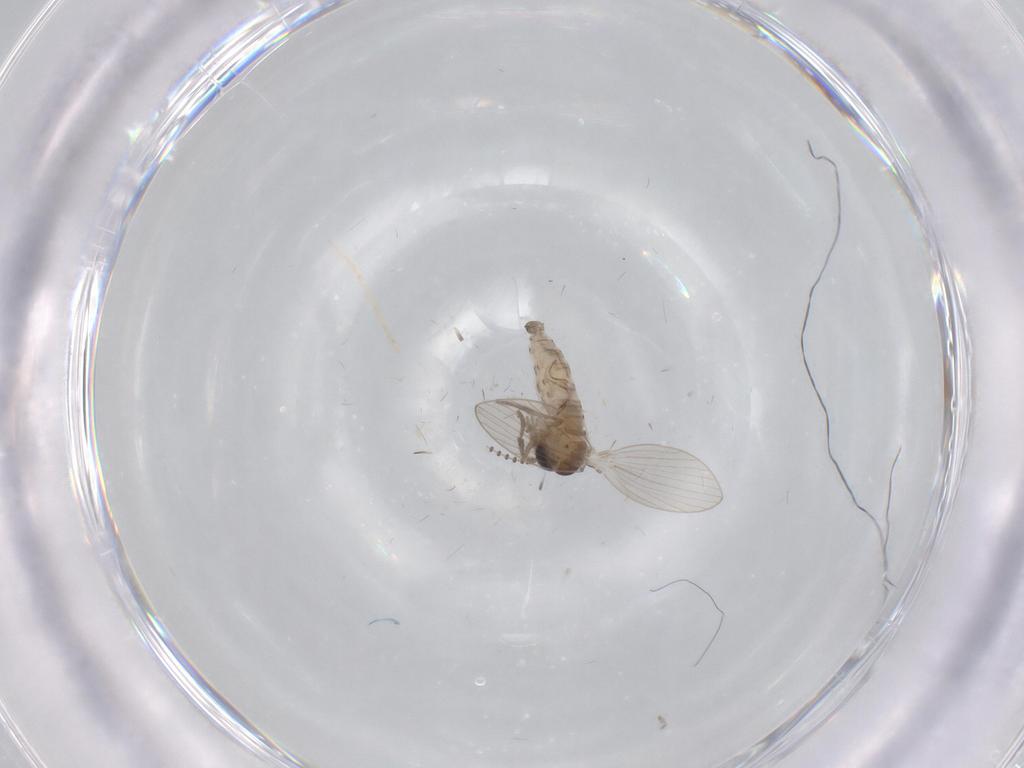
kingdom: Animalia
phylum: Arthropoda
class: Insecta
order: Diptera
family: Psychodidae
